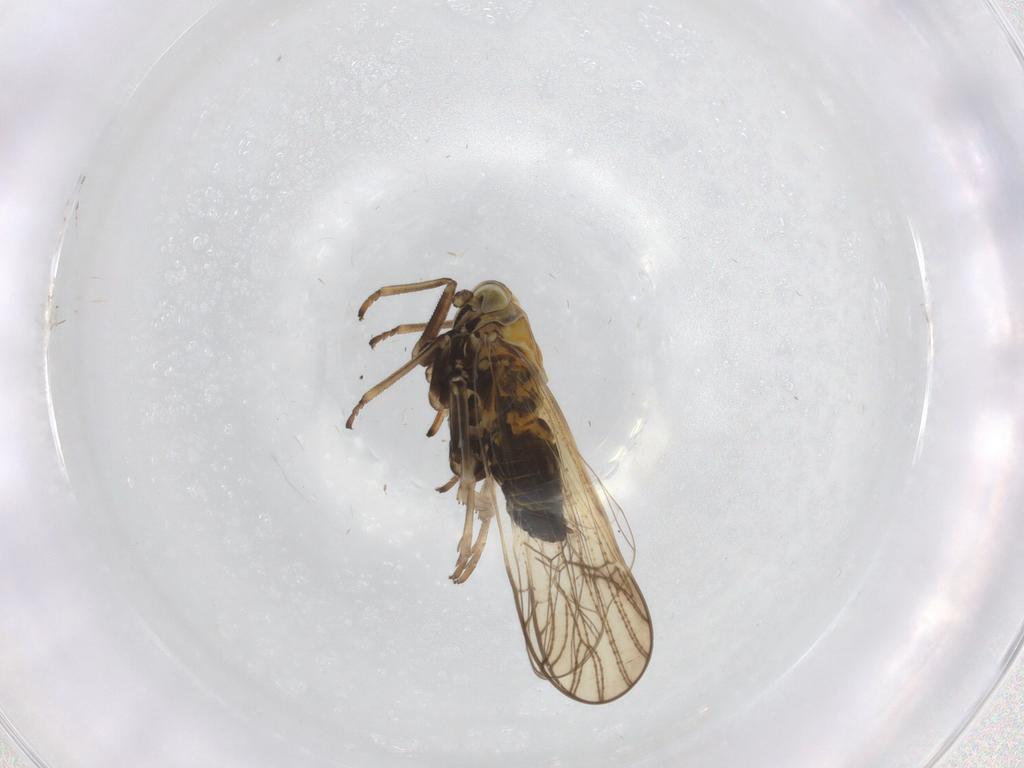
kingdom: Animalia
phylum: Arthropoda
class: Insecta
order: Hemiptera
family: Delphacidae
